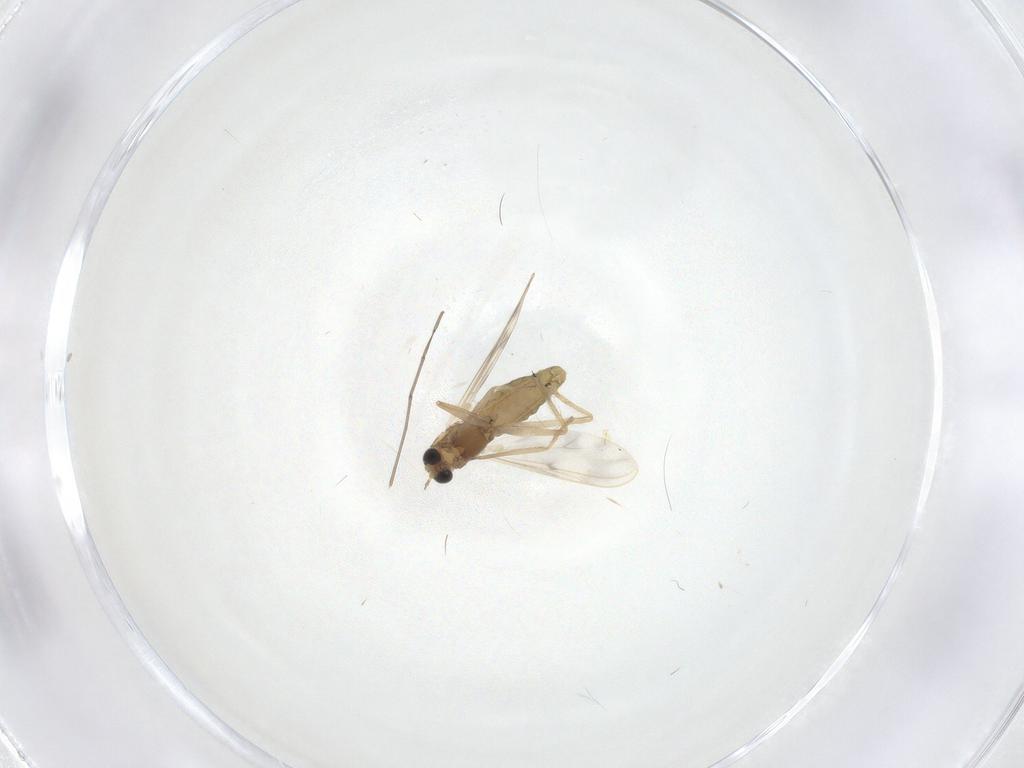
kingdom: Animalia
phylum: Arthropoda
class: Insecta
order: Diptera
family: Chironomidae
